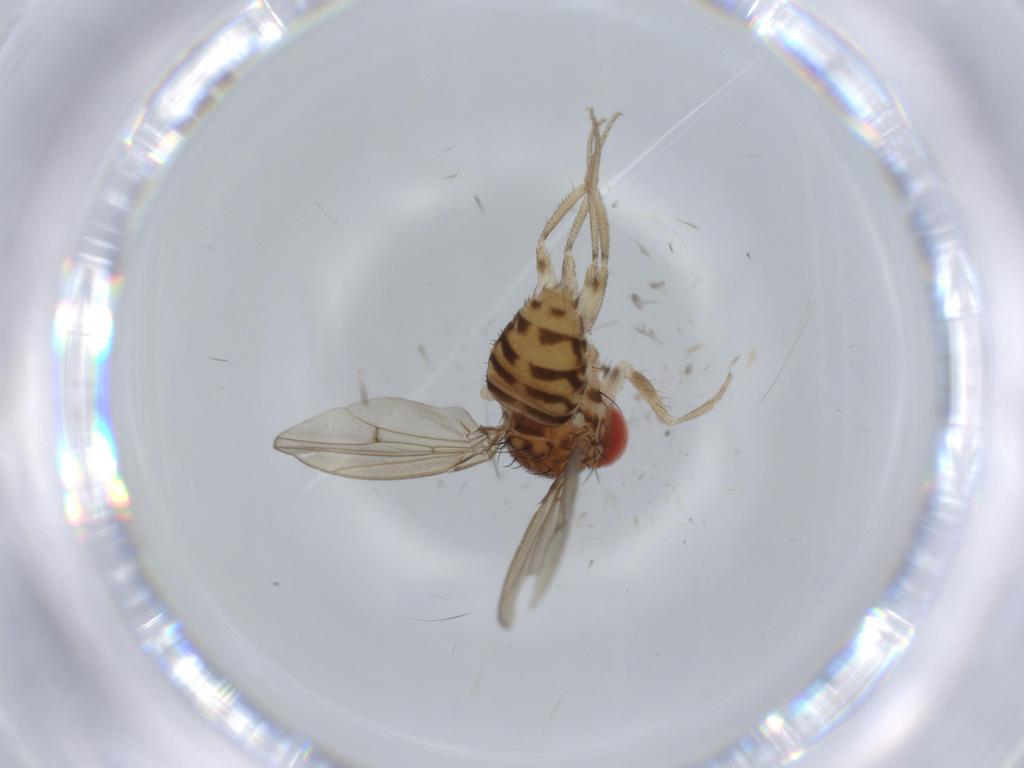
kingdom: Animalia
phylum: Arthropoda
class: Insecta
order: Diptera
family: Drosophilidae
